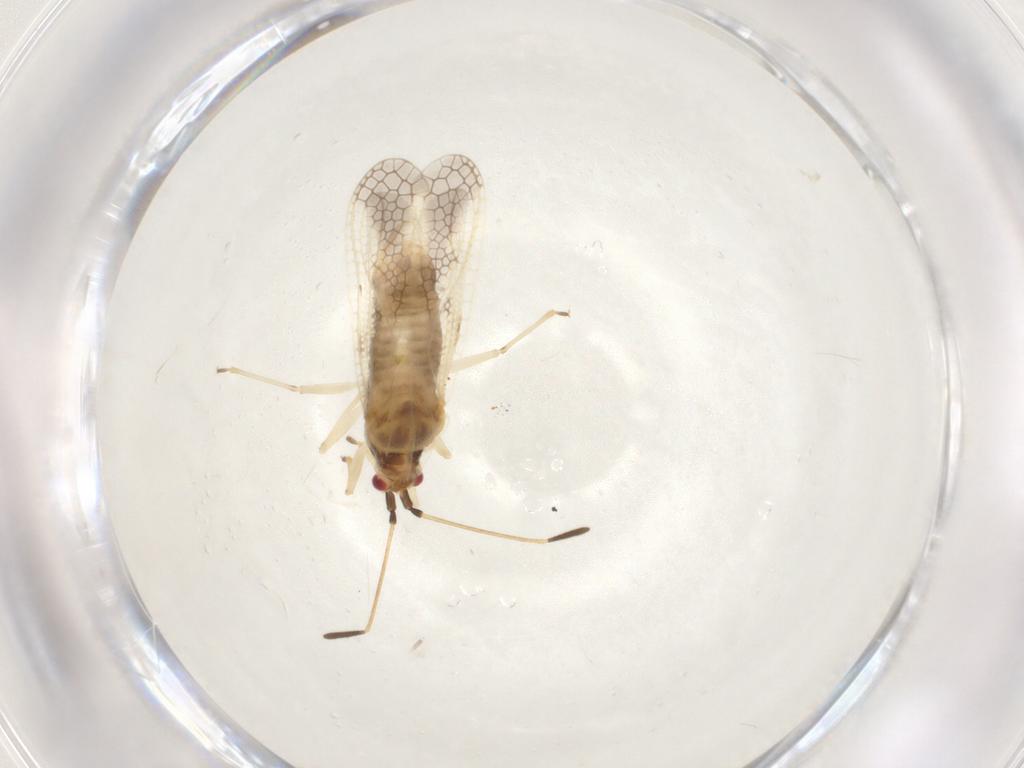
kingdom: Animalia
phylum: Arthropoda
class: Insecta
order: Hemiptera
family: Tingidae
